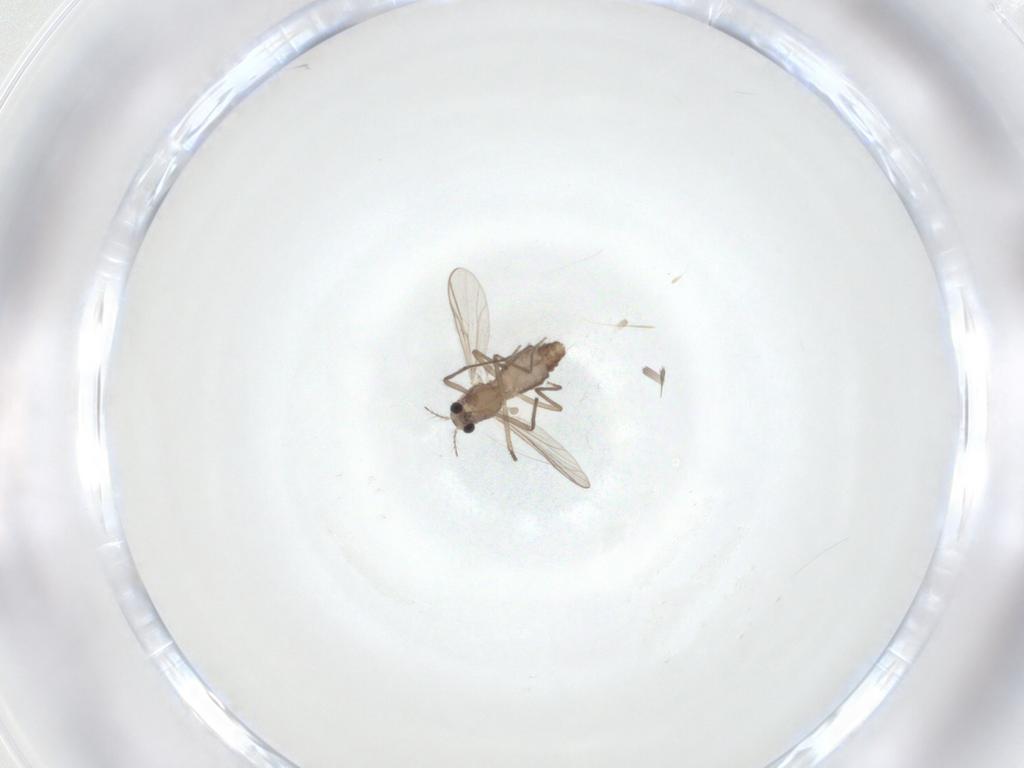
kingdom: Animalia
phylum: Arthropoda
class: Insecta
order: Diptera
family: Chironomidae
